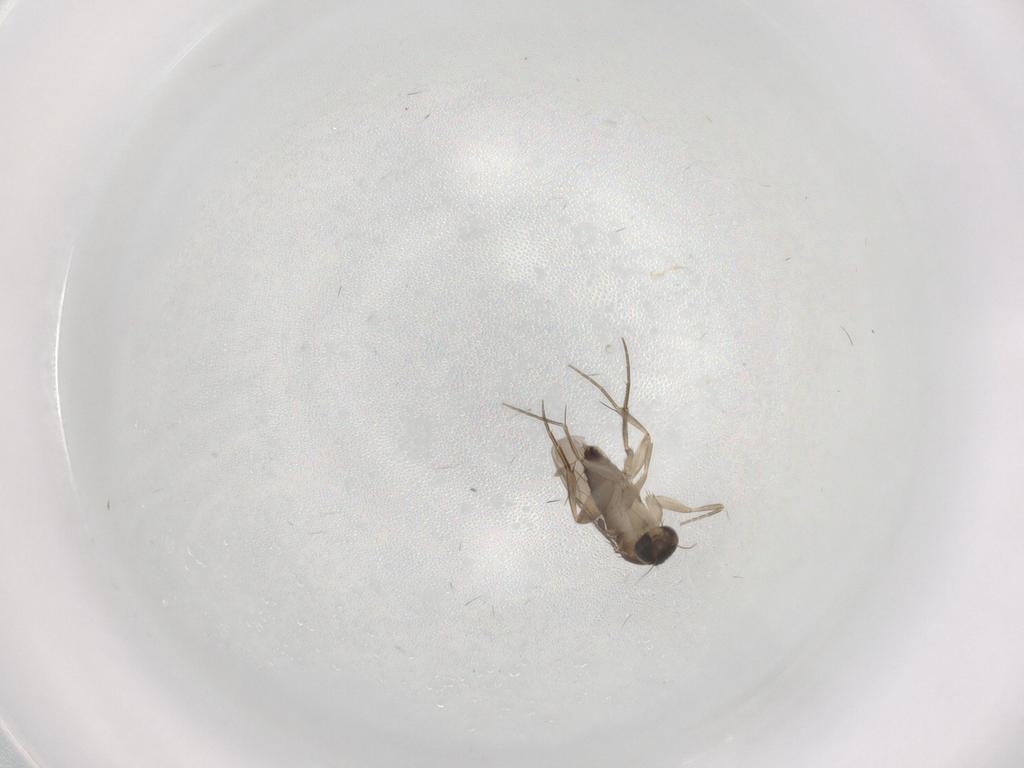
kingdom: Animalia
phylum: Arthropoda
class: Insecta
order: Diptera
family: Phoridae
